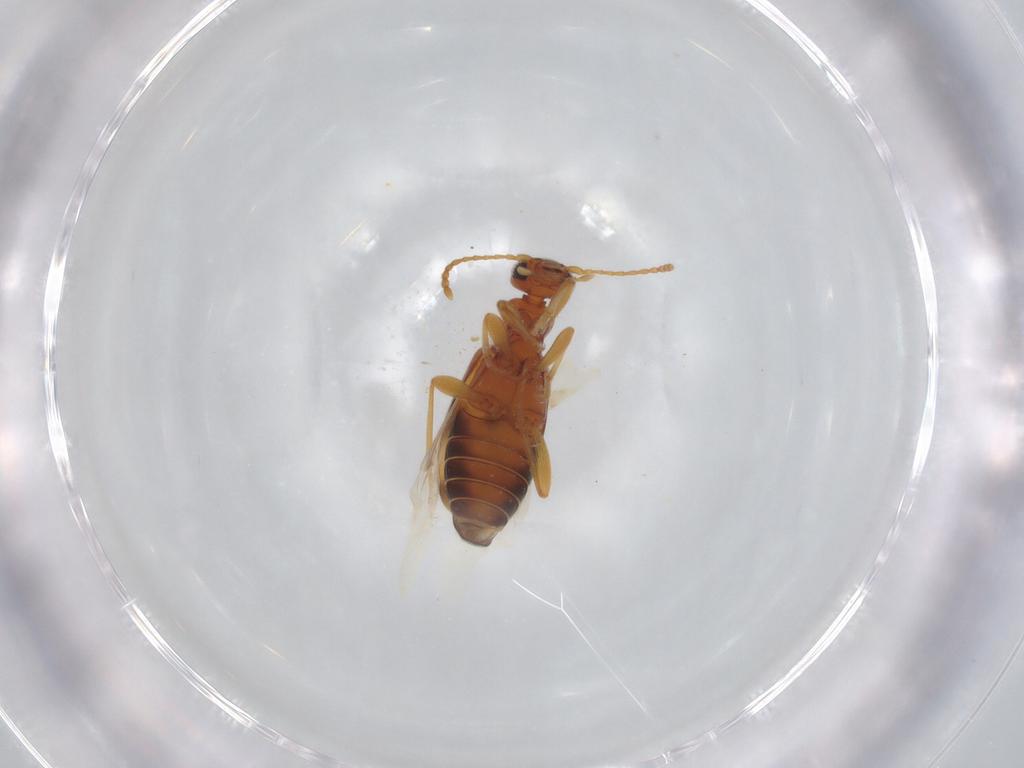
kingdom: Animalia
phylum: Arthropoda
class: Insecta
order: Coleoptera
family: Anthicidae
